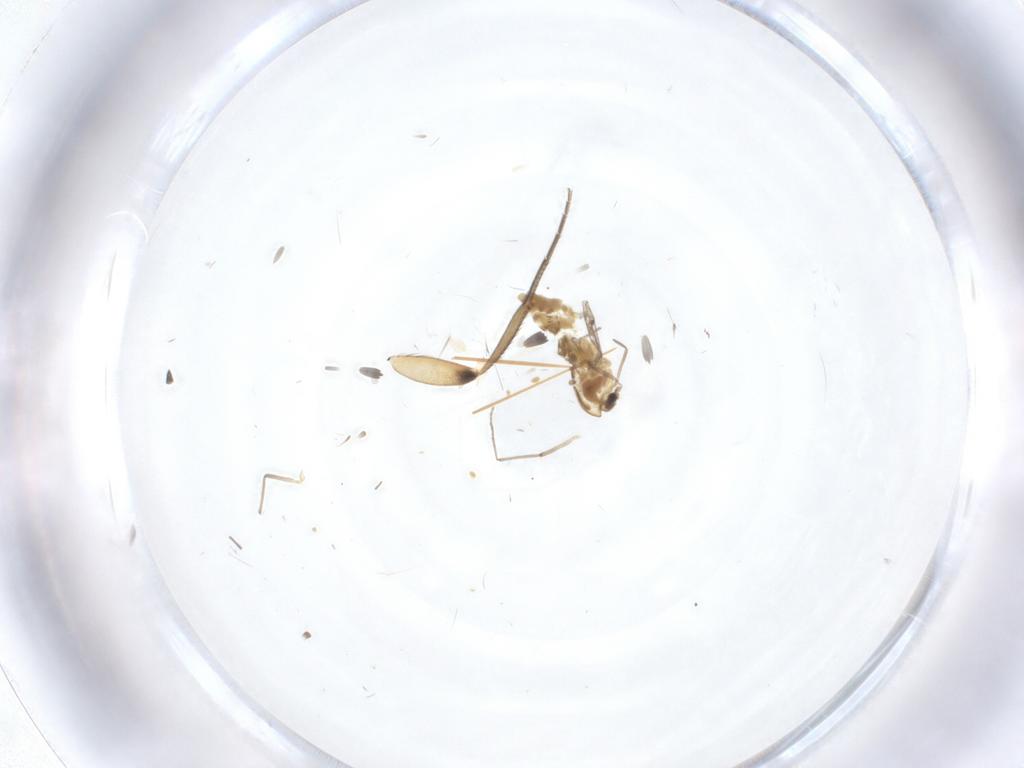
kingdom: Animalia
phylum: Arthropoda
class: Insecta
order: Diptera
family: Phoridae
